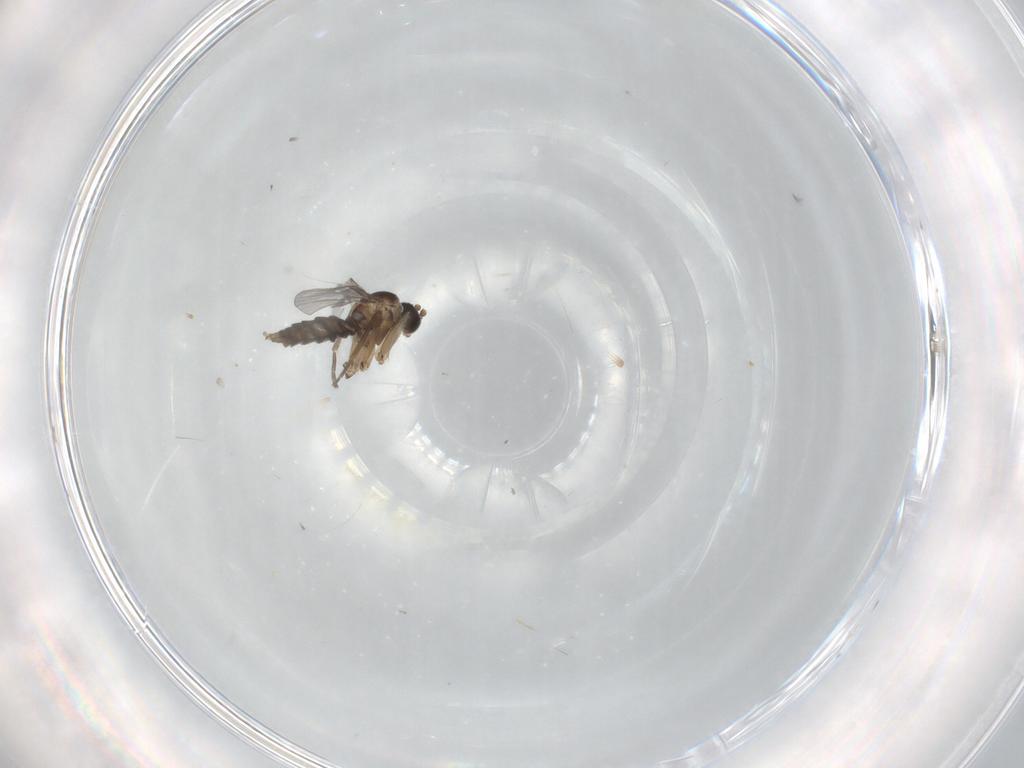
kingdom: Animalia
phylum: Arthropoda
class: Insecta
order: Diptera
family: Sciaridae
